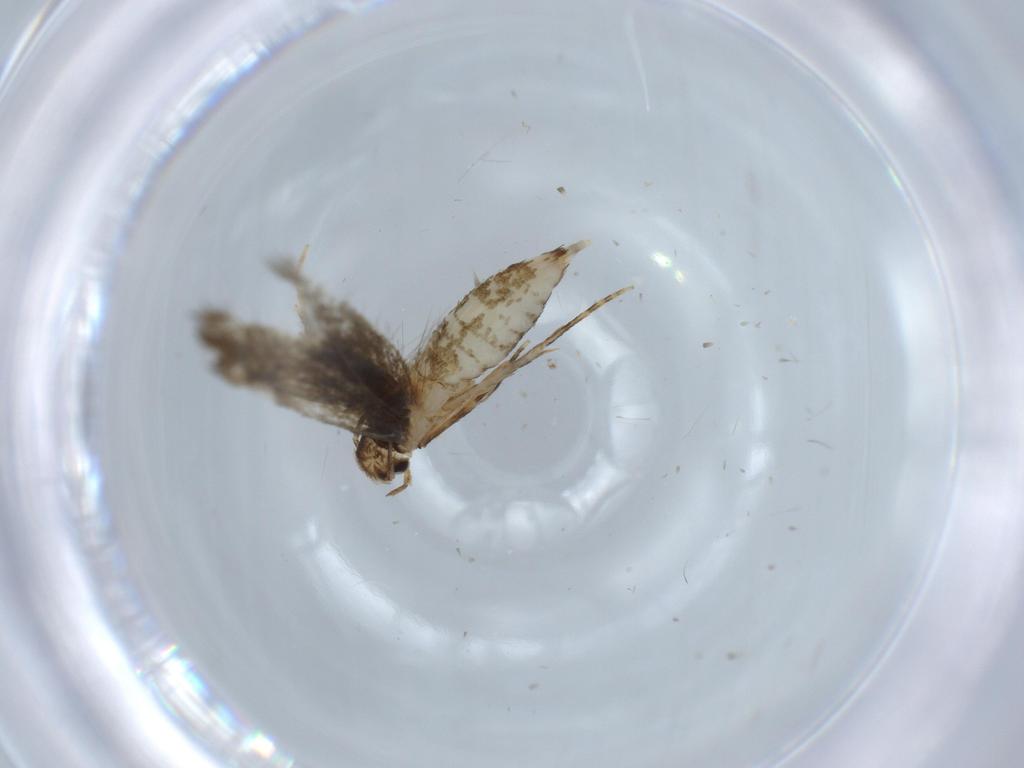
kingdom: Animalia
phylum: Arthropoda
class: Insecta
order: Lepidoptera
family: Tineidae
